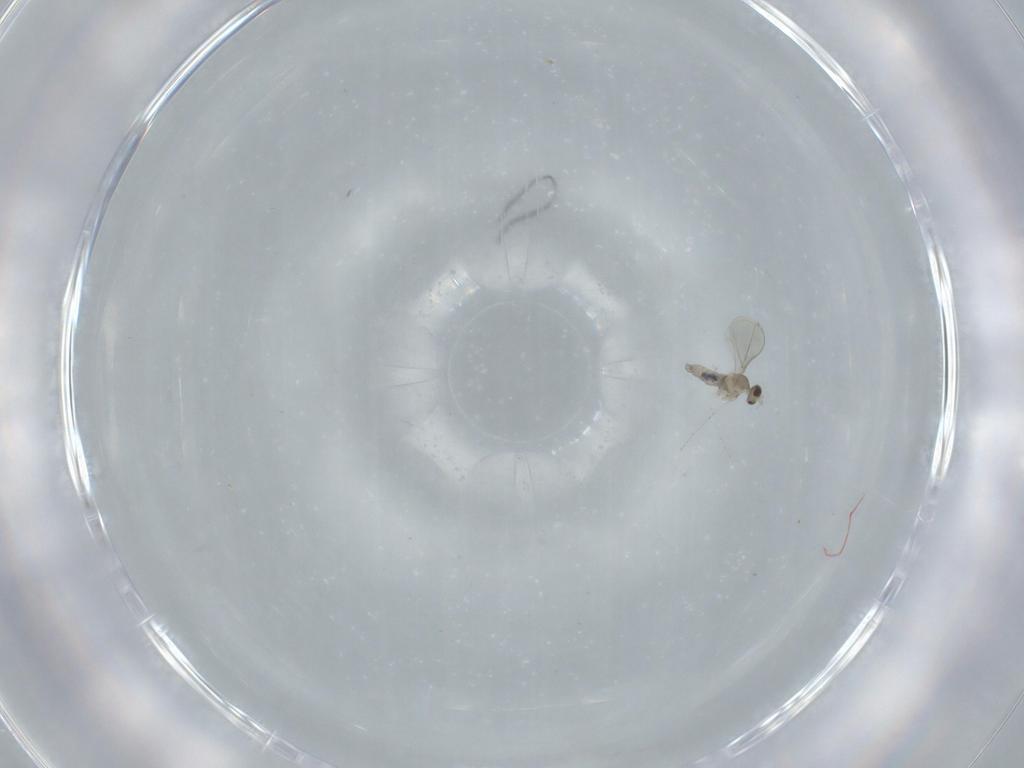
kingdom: Animalia
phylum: Arthropoda
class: Insecta
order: Diptera
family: Cecidomyiidae
